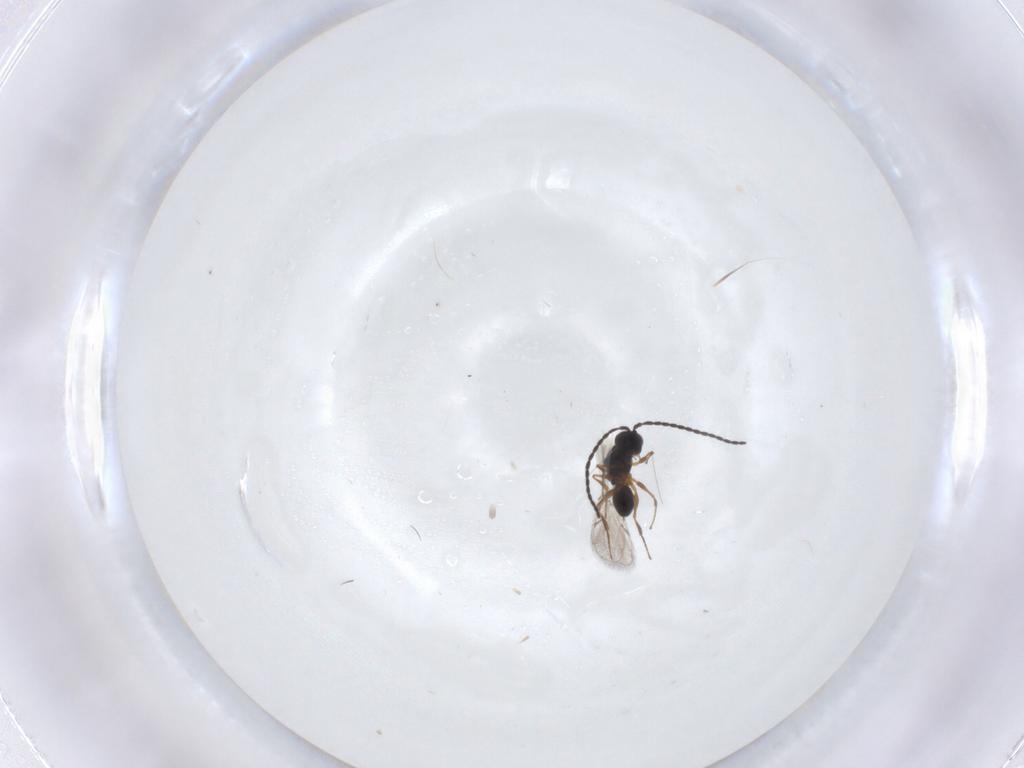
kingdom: Animalia
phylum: Arthropoda
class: Insecta
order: Hymenoptera
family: Figitidae
